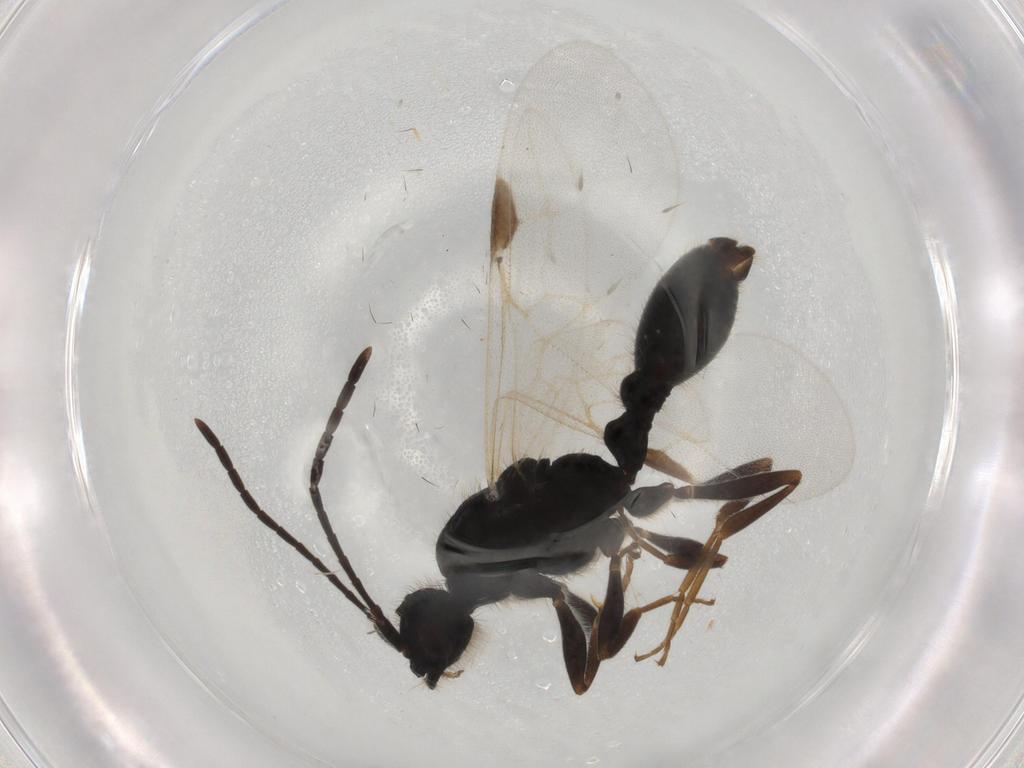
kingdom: Animalia
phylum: Arthropoda
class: Insecta
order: Hymenoptera
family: Formicidae
